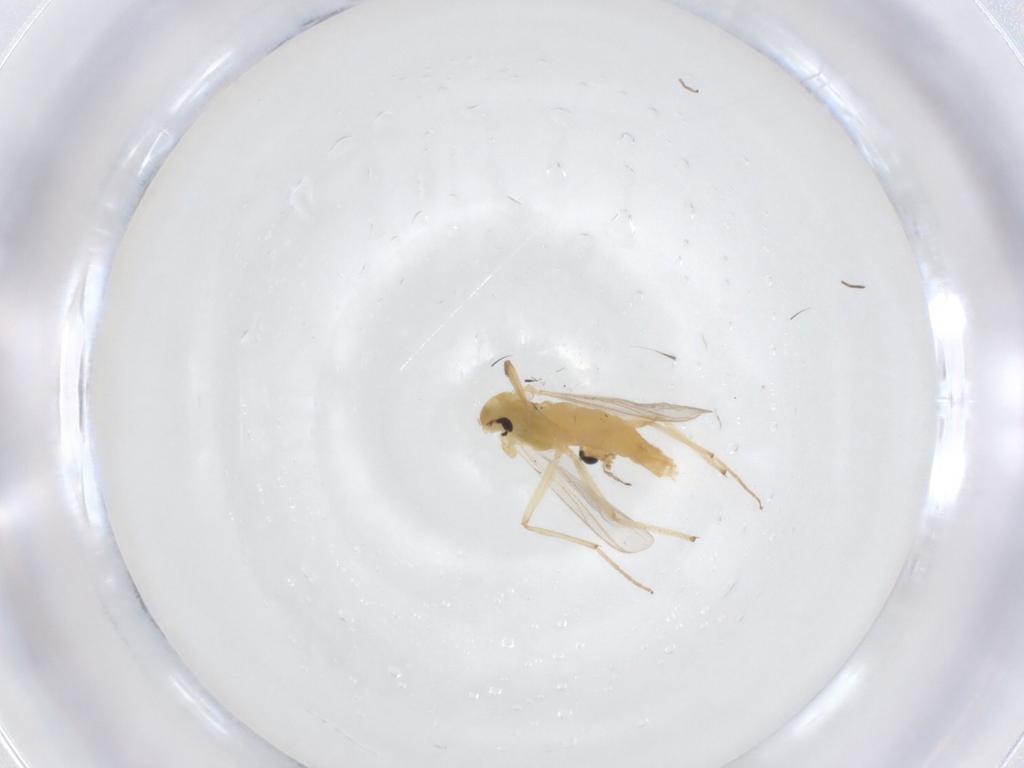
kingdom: Animalia
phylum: Arthropoda
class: Insecta
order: Diptera
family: Chironomidae
